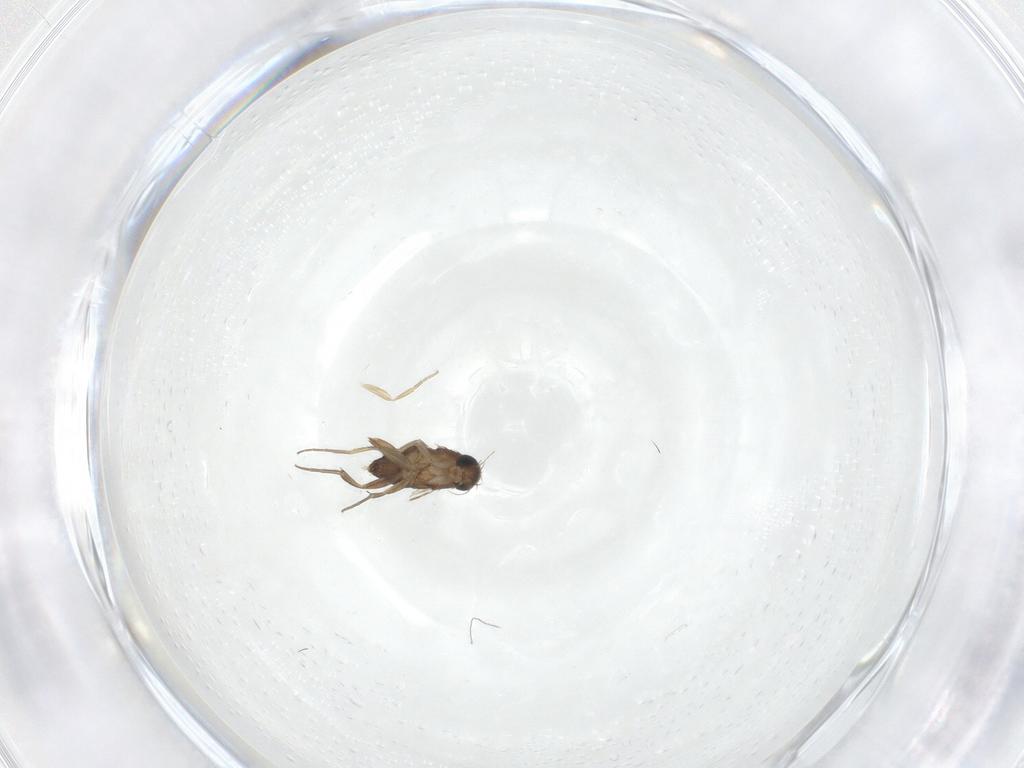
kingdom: Animalia
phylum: Arthropoda
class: Insecta
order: Diptera
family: Phoridae
